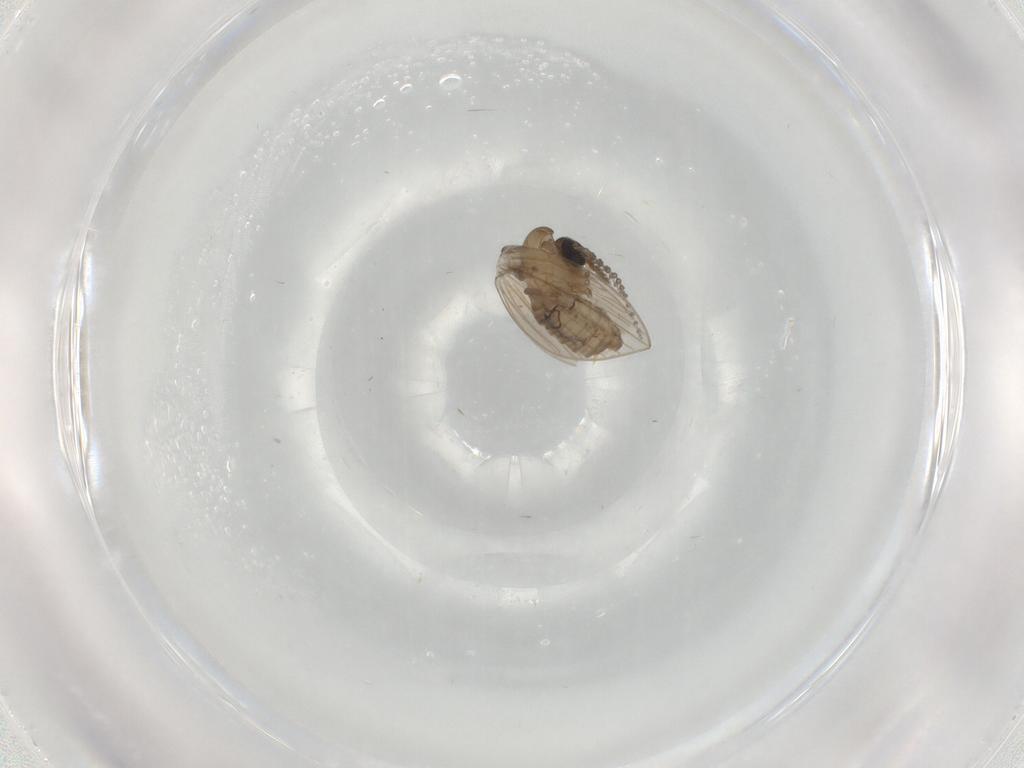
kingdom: Animalia
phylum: Arthropoda
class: Insecta
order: Diptera
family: Psychodidae
